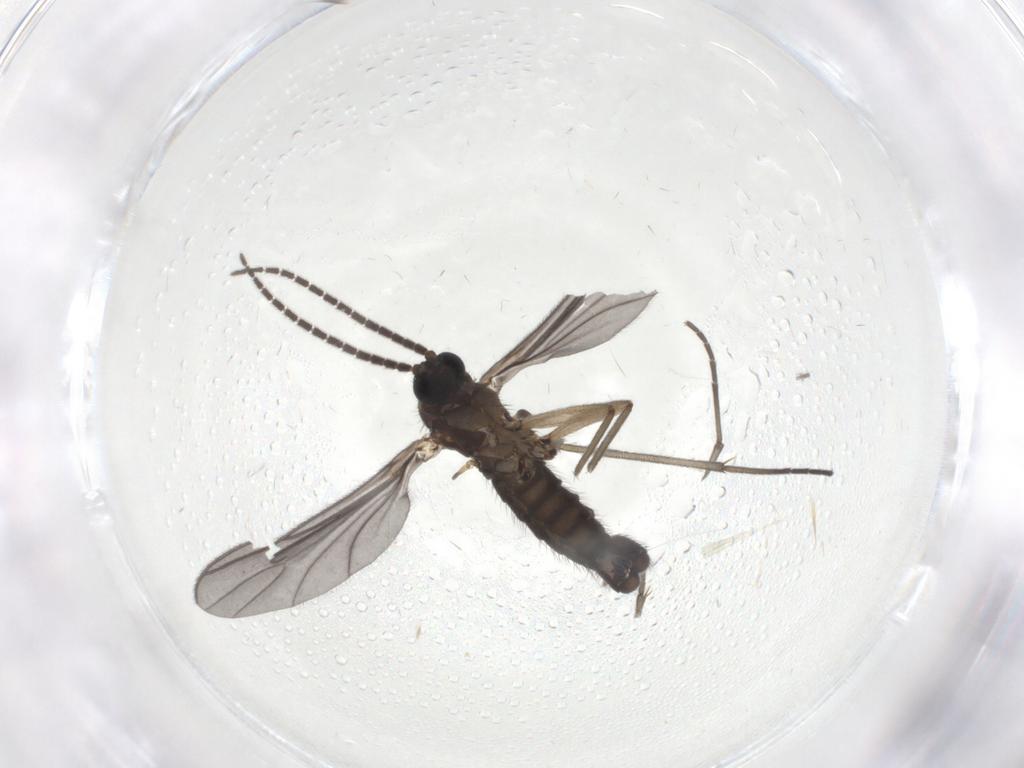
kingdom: Animalia
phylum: Arthropoda
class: Insecta
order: Diptera
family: Sciaridae
